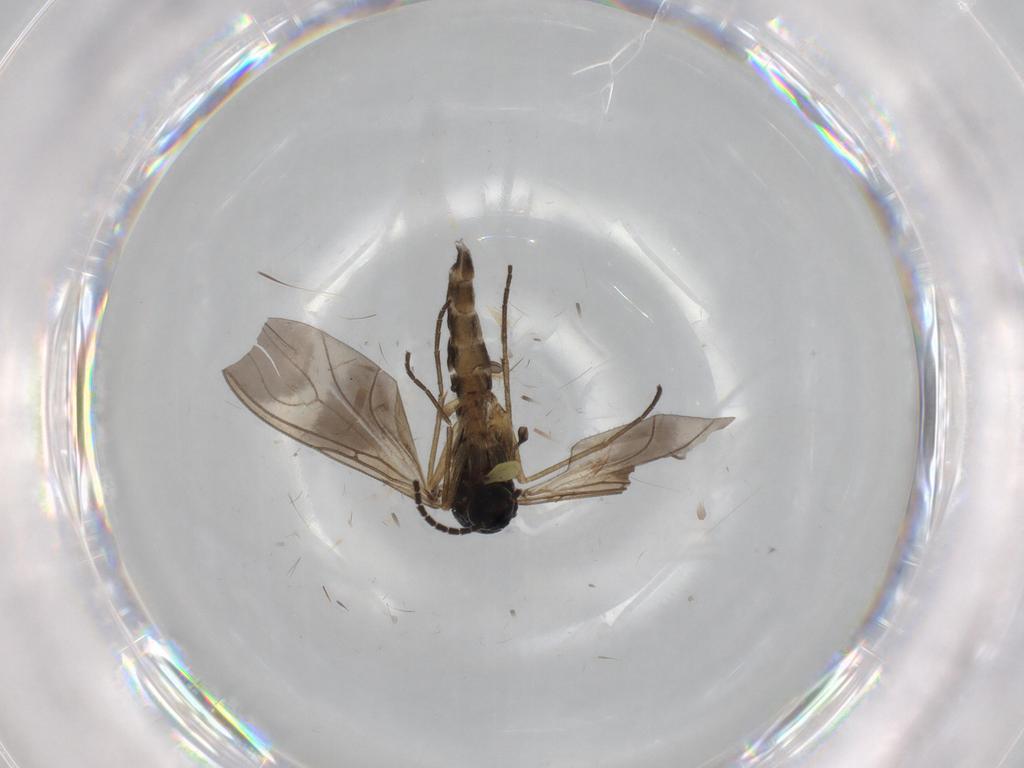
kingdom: Animalia
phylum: Arthropoda
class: Insecta
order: Diptera
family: Sciaridae
